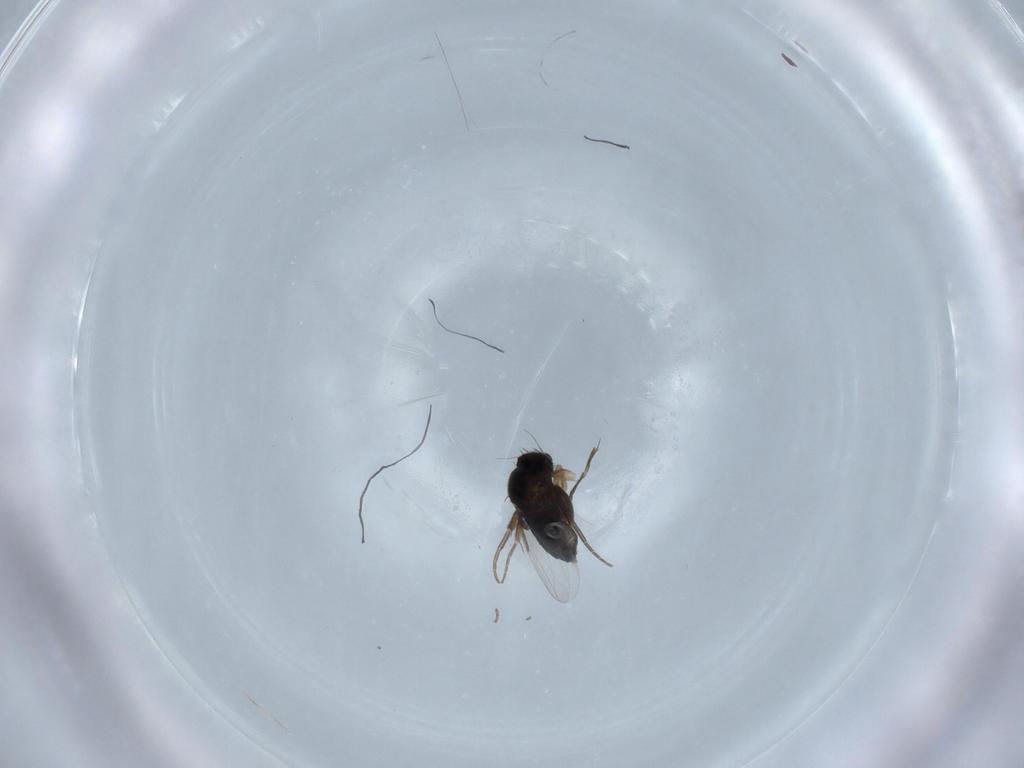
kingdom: Animalia
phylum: Arthropoda
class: Insecta
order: Diptera
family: Phoridae
